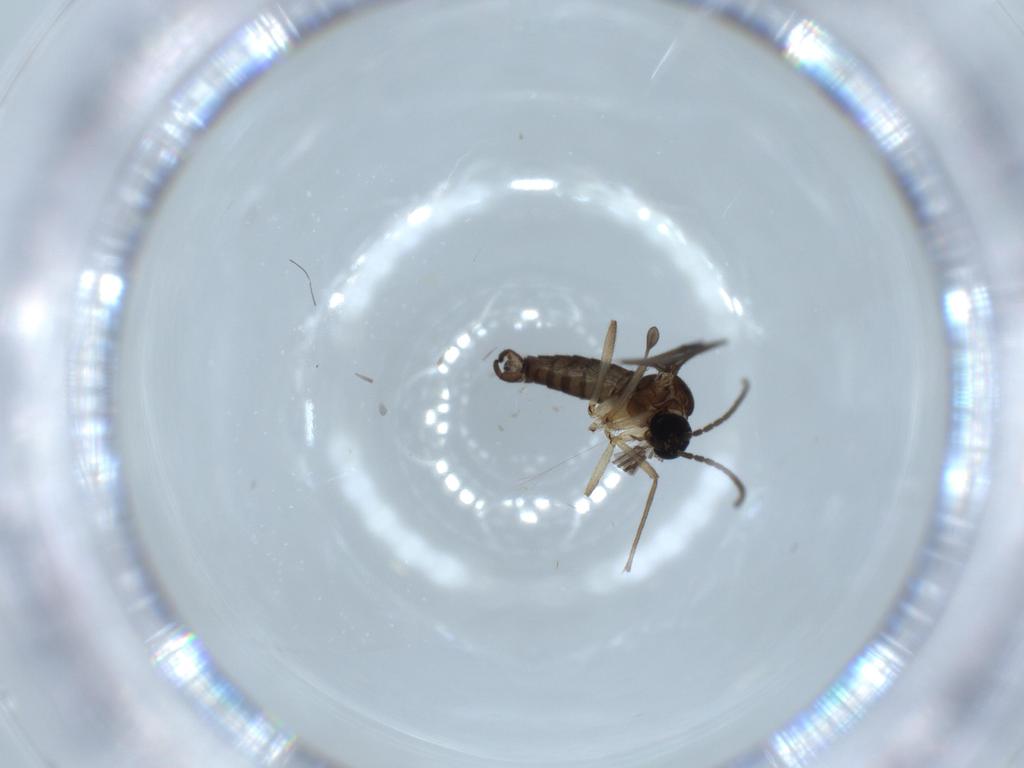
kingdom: Animalia
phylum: Arthropoda
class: Insecta
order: Diptera
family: Sciaridae
